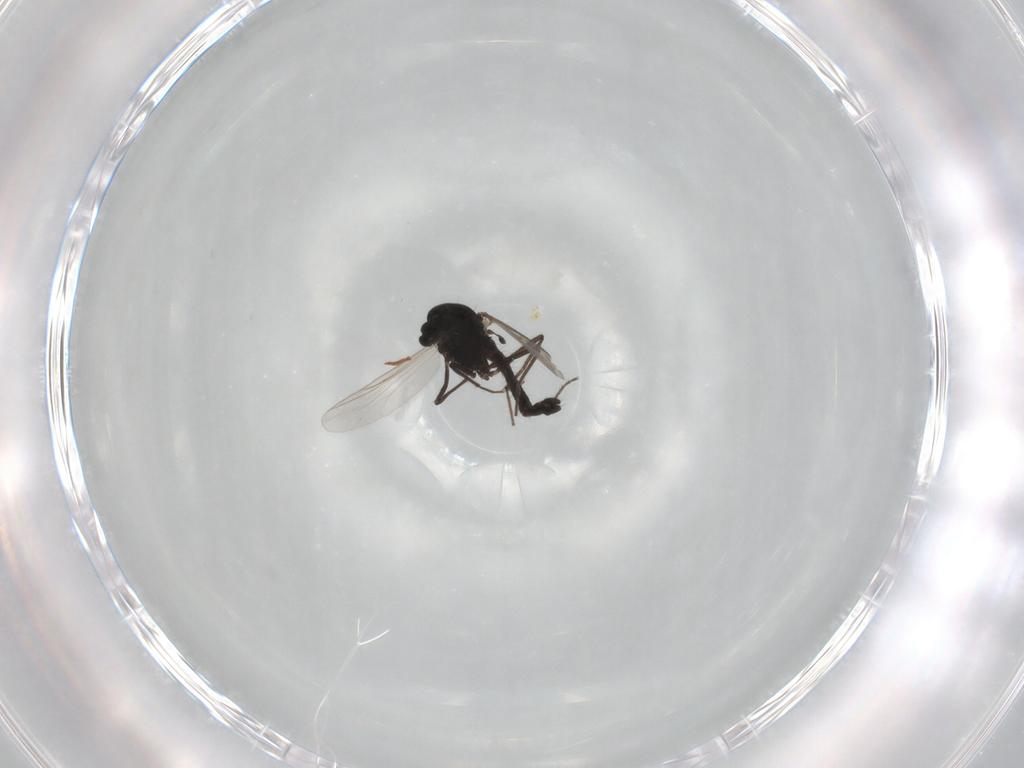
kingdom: Animalia
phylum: Arthropoda
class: Insecta
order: Diptera
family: Chironomidae
